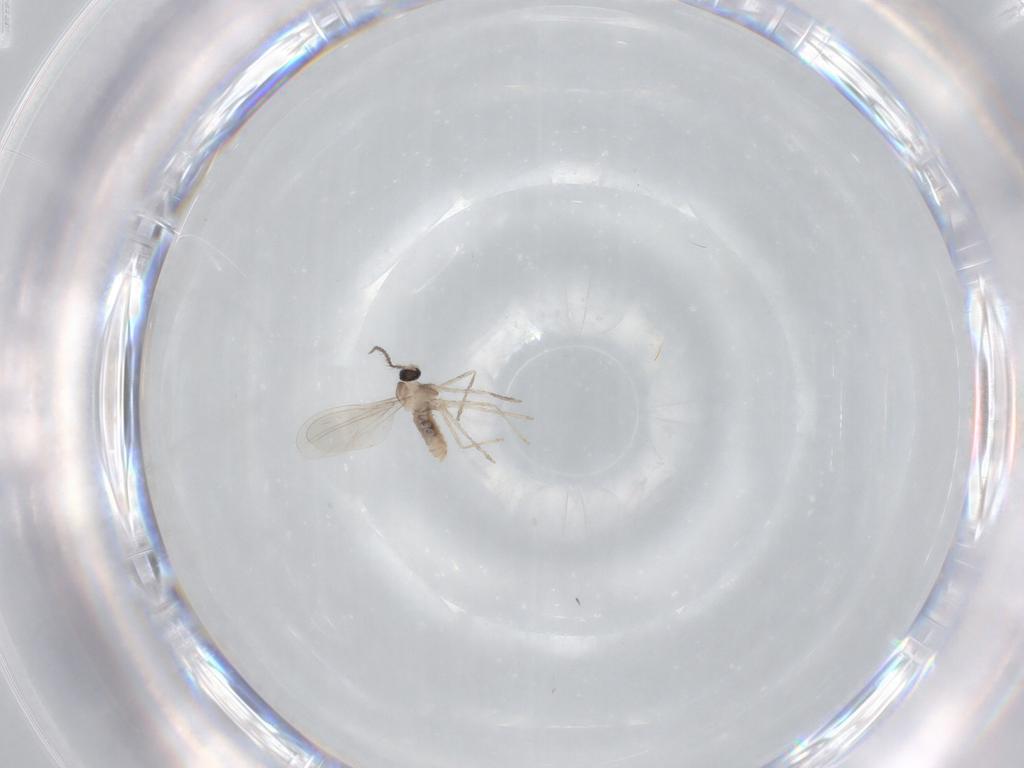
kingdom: Animalia
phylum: Arthropoda
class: Insecta
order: Diptera
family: Cecidomyiidae
